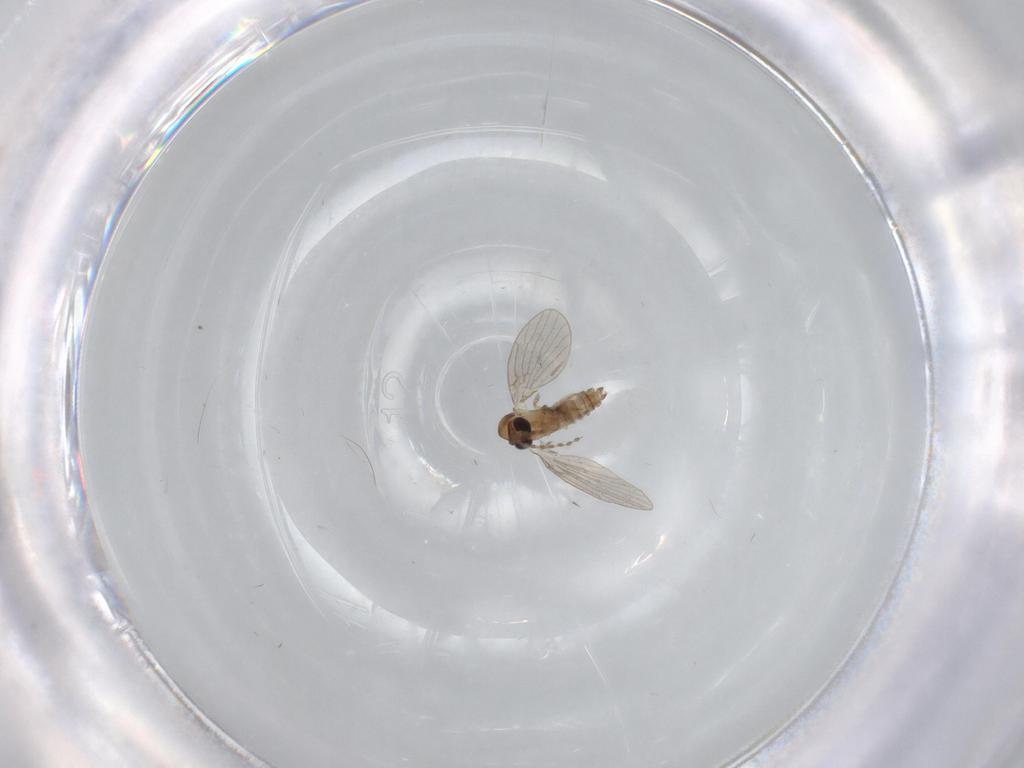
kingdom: Animalia
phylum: Arthropoda
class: Insecta
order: Diptera
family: Psychodidae
